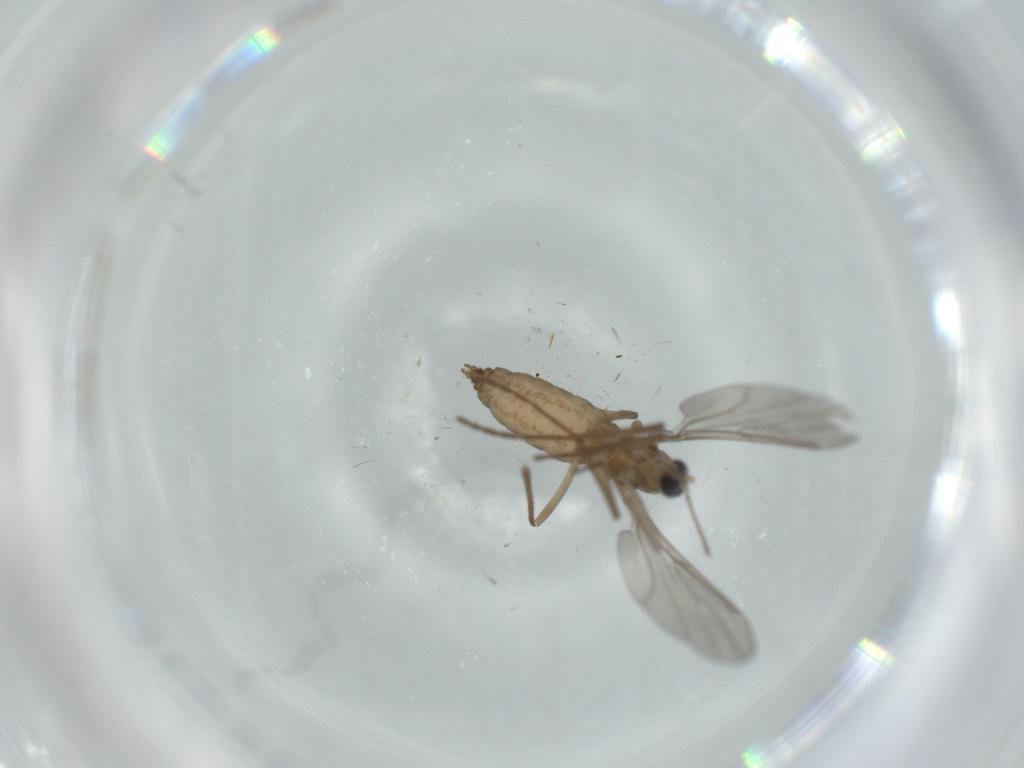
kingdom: Animalia
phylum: Arthropoda
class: Insecta
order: Diptera
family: Cecidomyiidae
